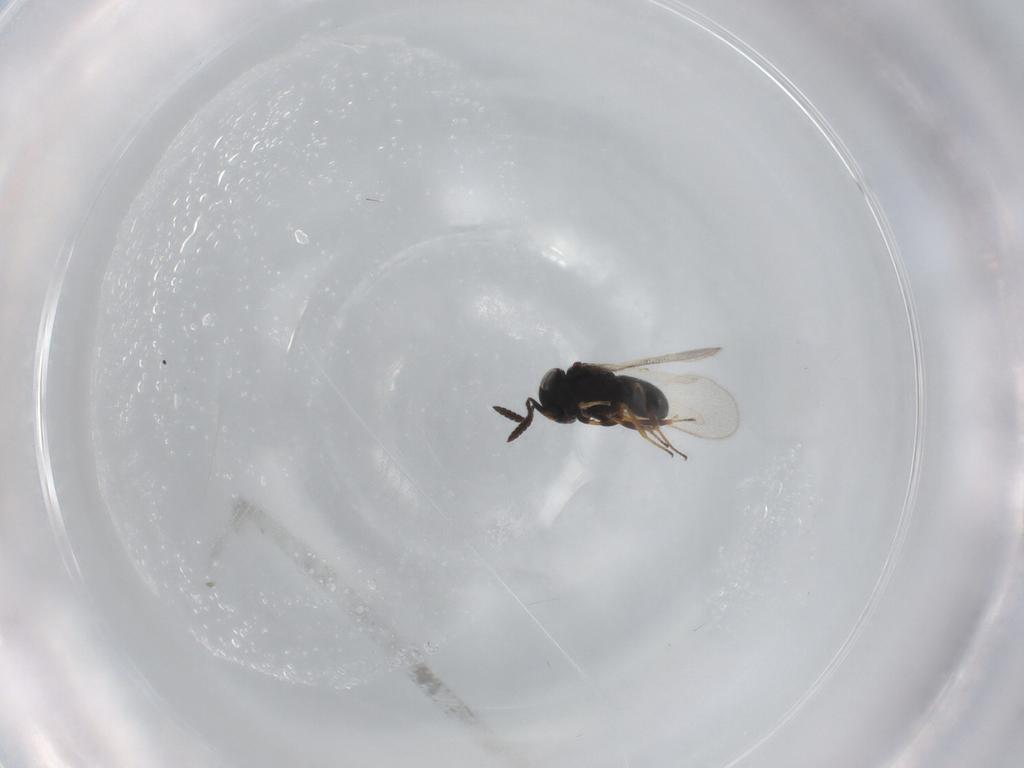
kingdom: Animalia
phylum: Arthropoda
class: Insecta
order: Hymenoptera
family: Scelionidae
